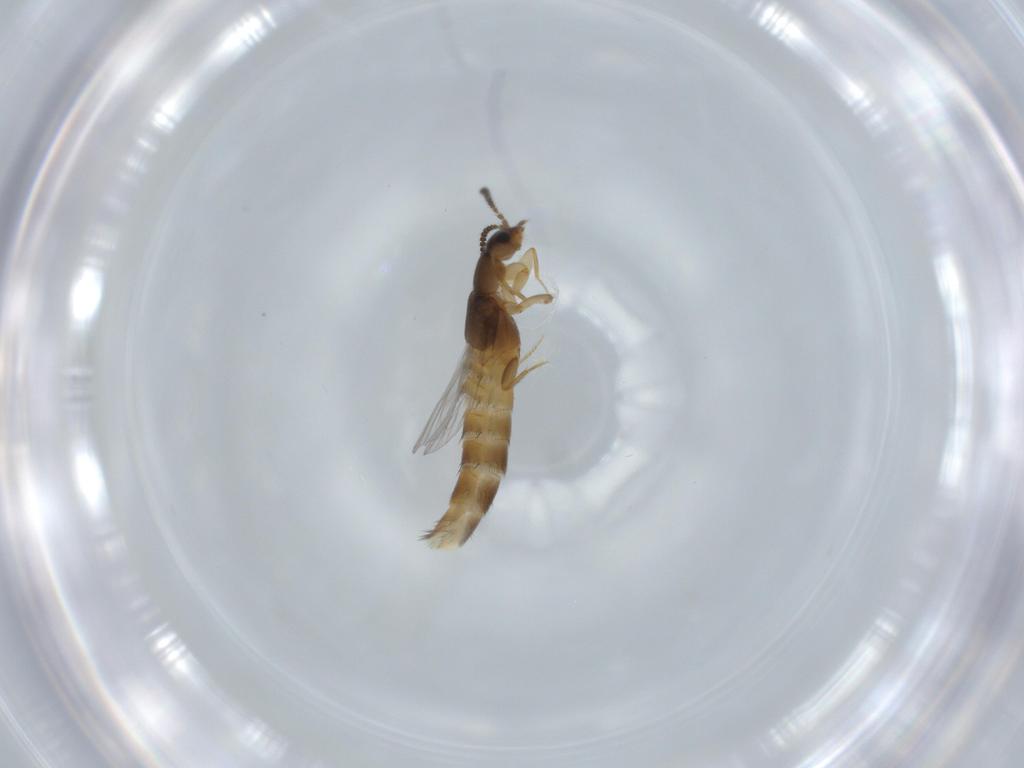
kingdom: Animalia
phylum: Arthropoda
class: Insecta
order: Coleoptera
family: Staphylinidae
